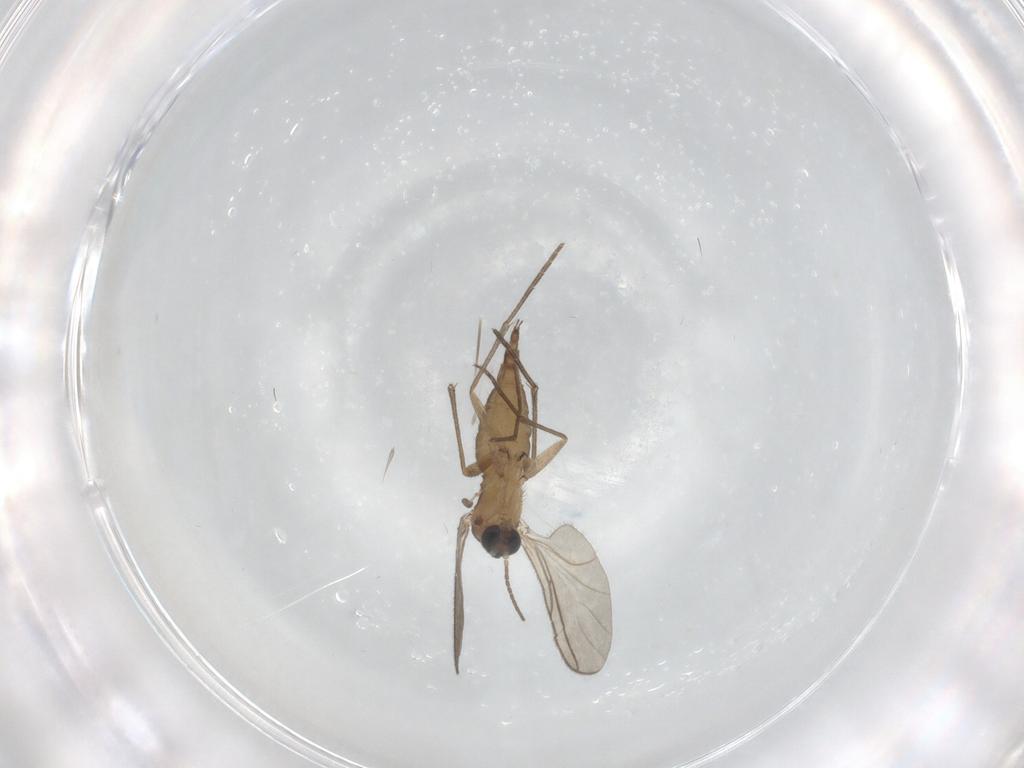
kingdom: Animalia
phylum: Arthropoda
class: Insecta
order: Diptera
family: Sciaridae
